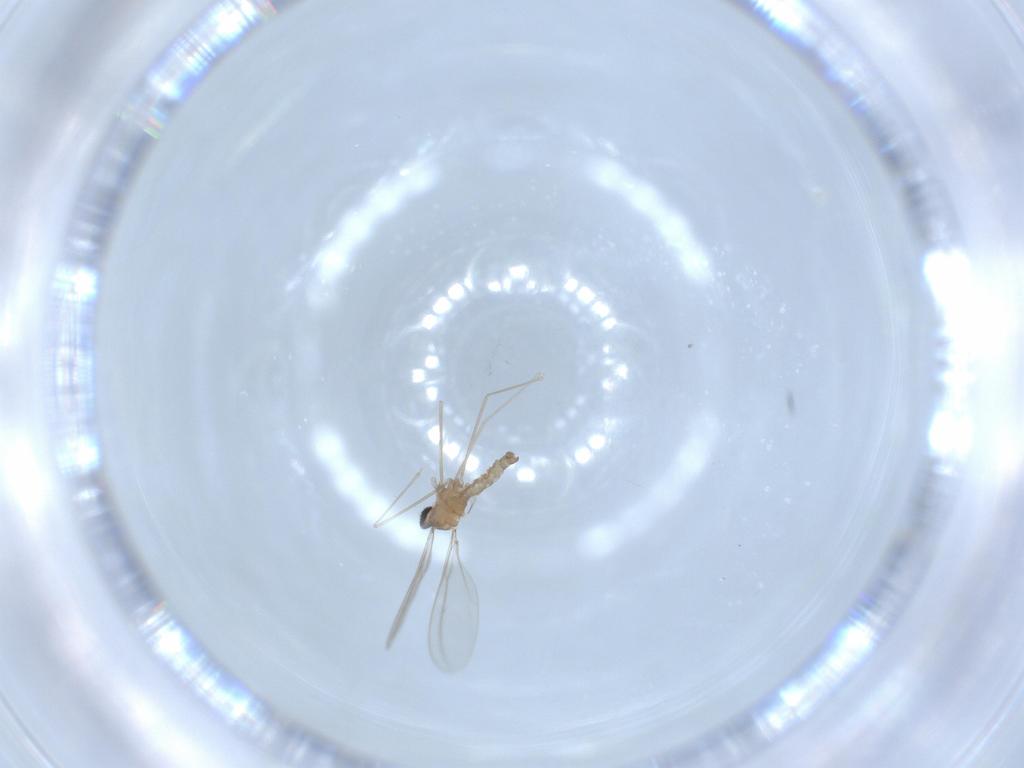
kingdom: Animalia
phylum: Arthropoda
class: Insecta
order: Diptera
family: Cecidomyiidae
